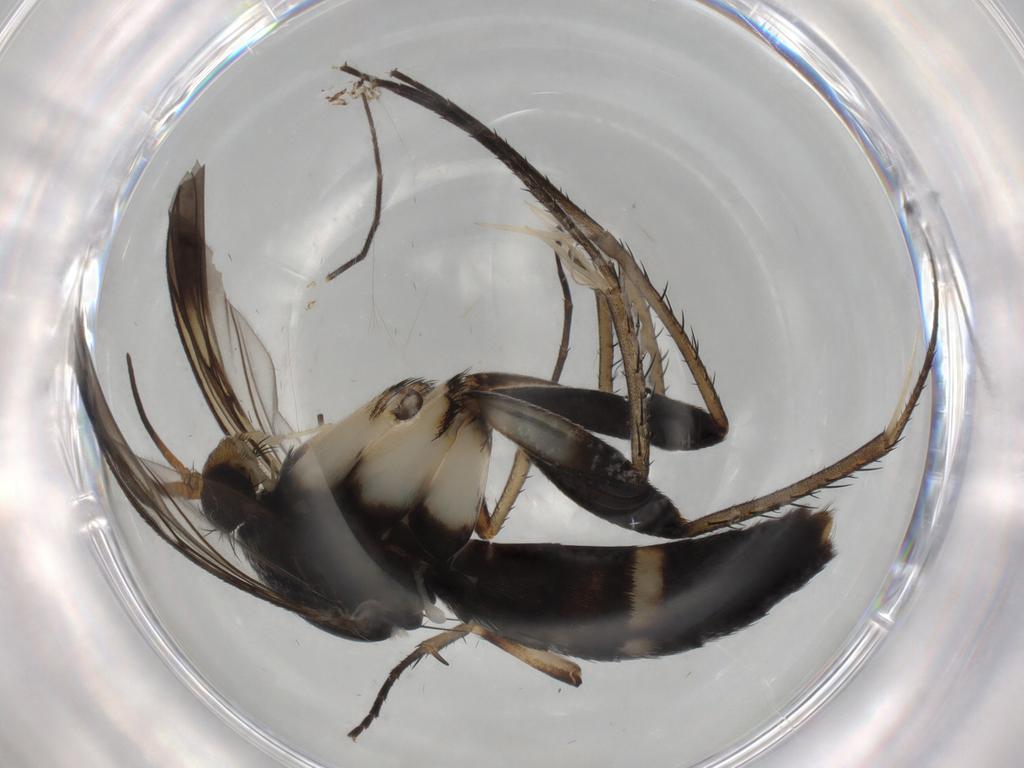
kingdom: Animalia
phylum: Arthropoda
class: Insecta
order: Diptera
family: Mycetophilidae
